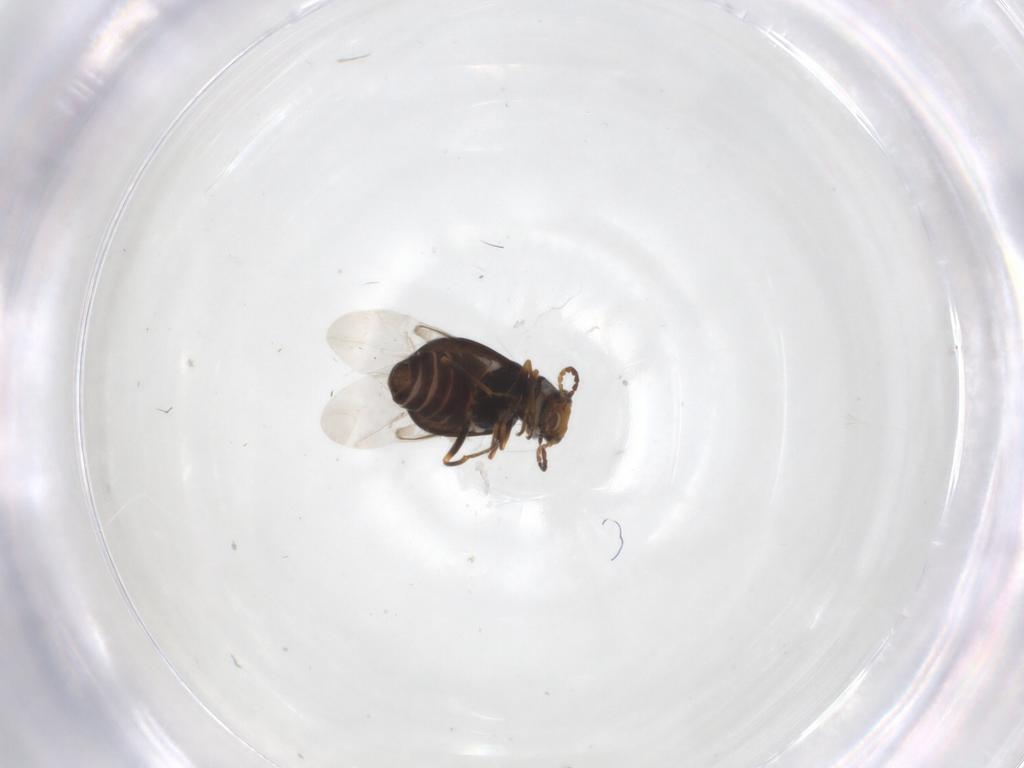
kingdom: Animalia
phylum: Arthropoda
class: Insecta
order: Coleoptera
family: Melyridae
